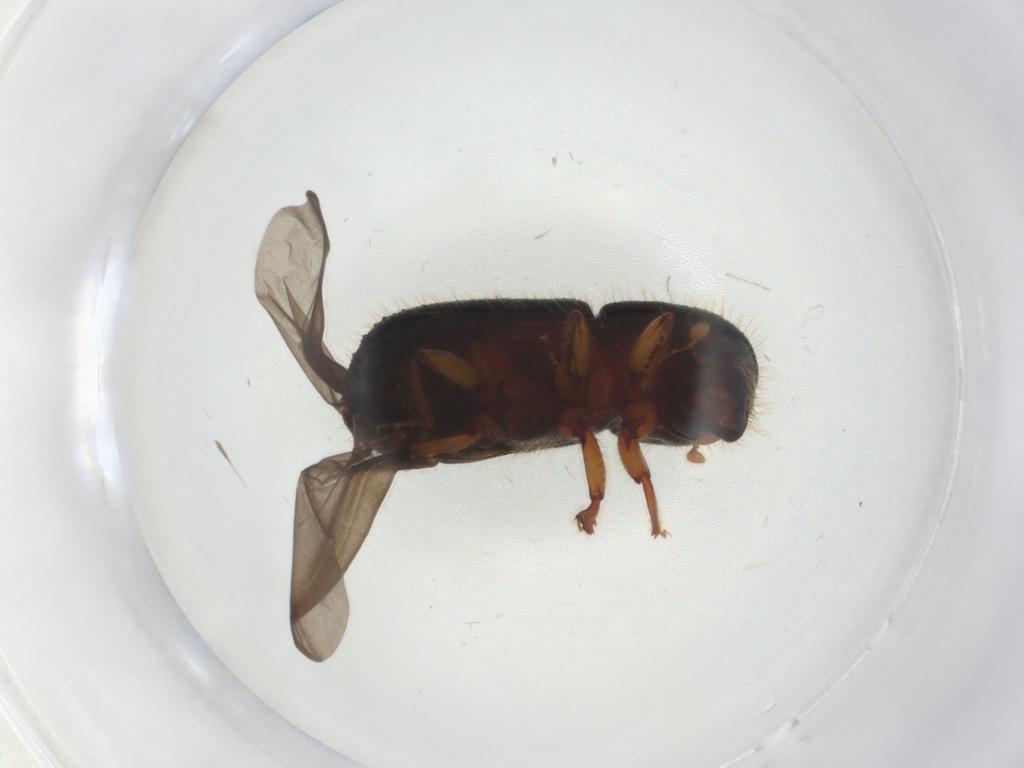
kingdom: Animalia
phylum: Arthropoda
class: Insecta
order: Coleoptera
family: Curculionidae
